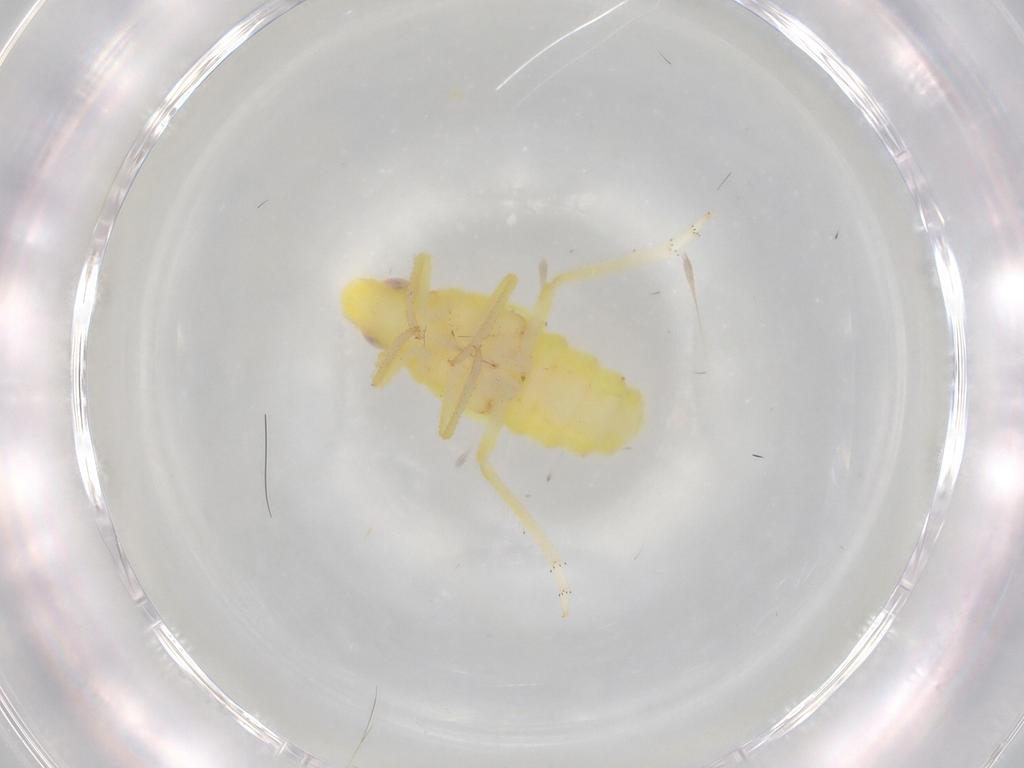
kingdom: Animalia
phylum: Arthropoda
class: Insecta
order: Hemiptera
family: Tropiduchidae
